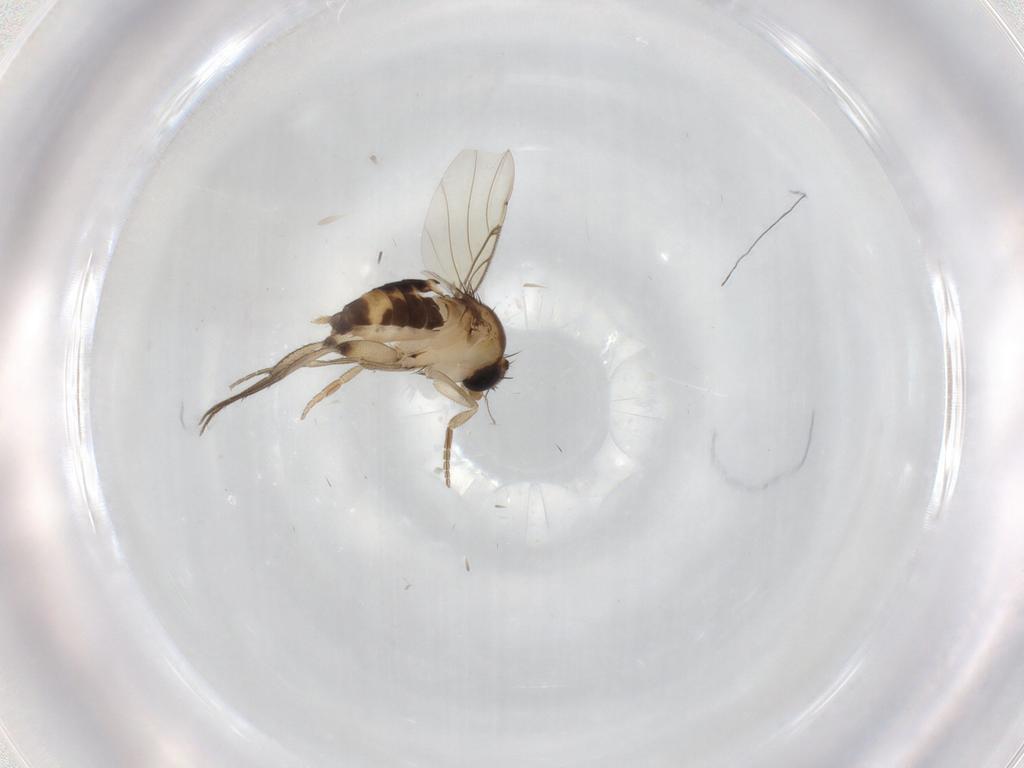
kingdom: Animalia
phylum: Arthropoda
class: Insecta
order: Diptera
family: Phoridae
